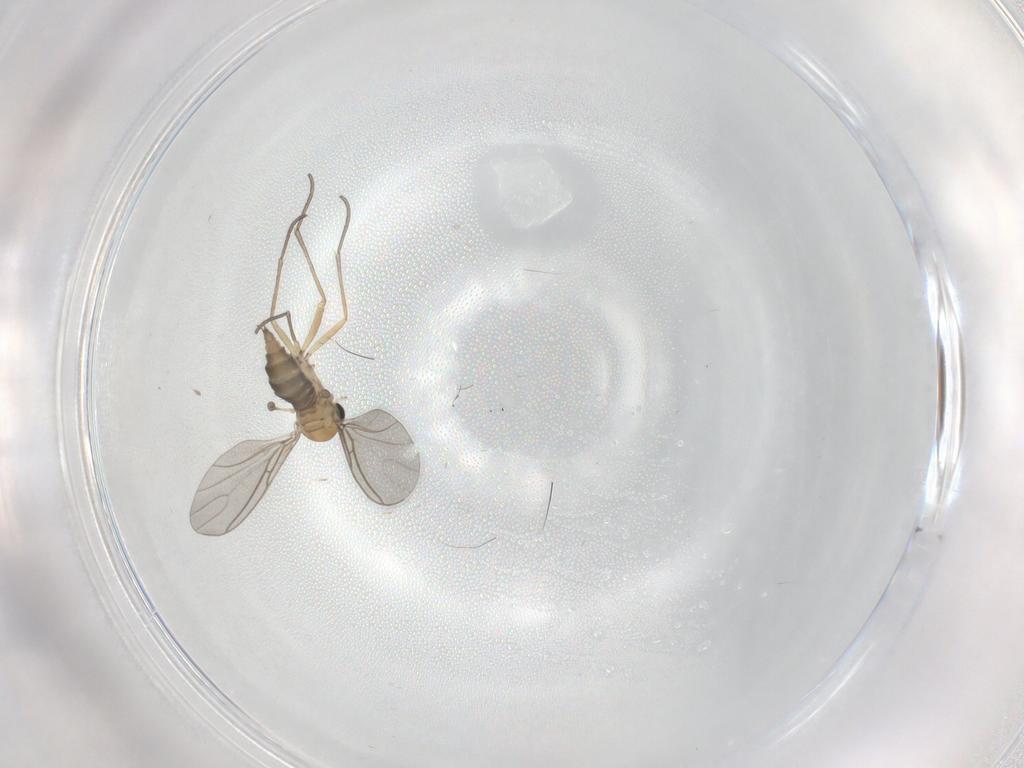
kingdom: Animalia
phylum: Arthropoda
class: Insecta
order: Diptera
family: Sciaridae
